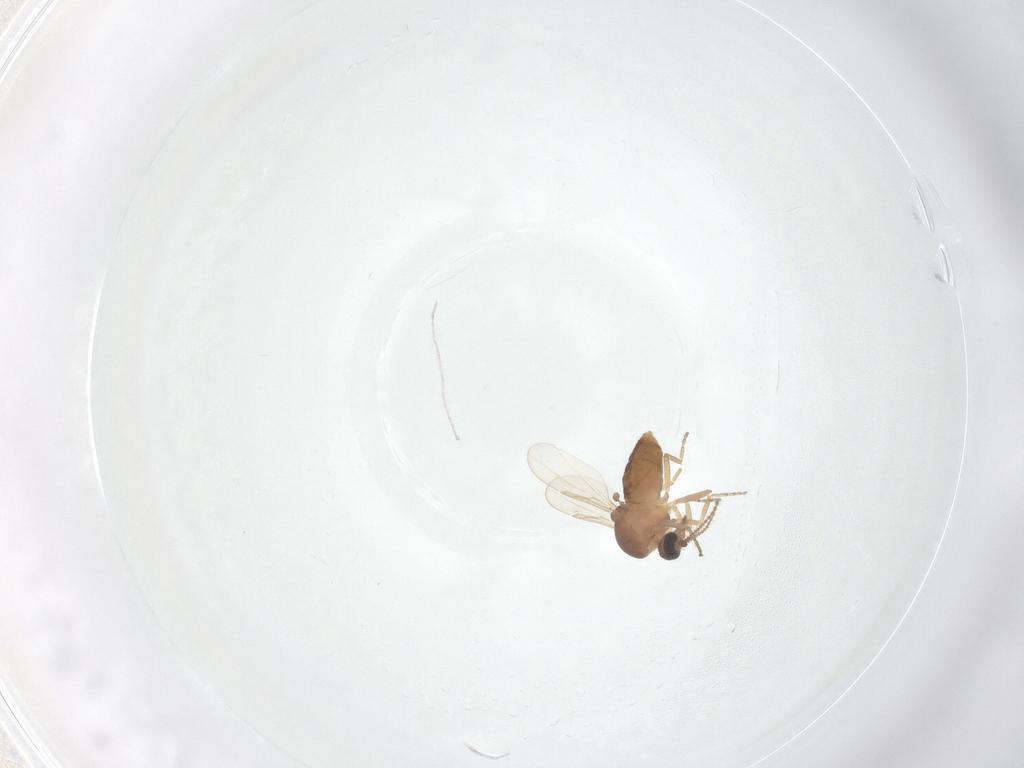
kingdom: Animalia
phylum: Arthropoda
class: Insecta
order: Diptera
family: Ceratopogonidae
